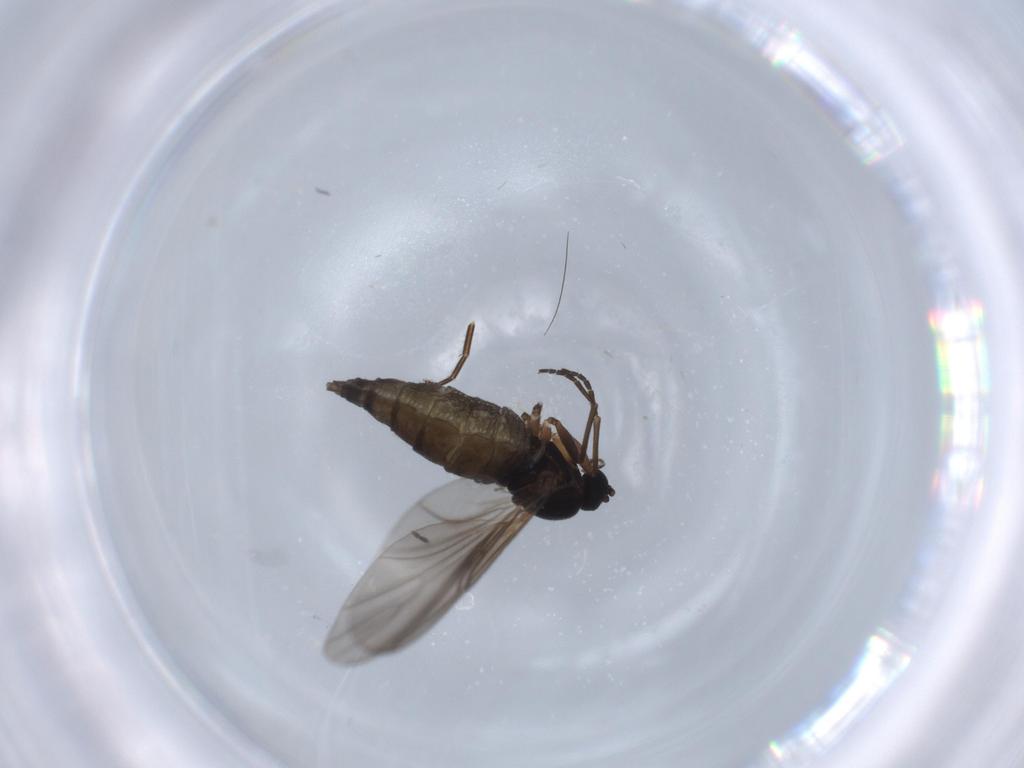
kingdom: Animalia
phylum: Arthropoda
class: Insecta
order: Diptera
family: Sciaridae
